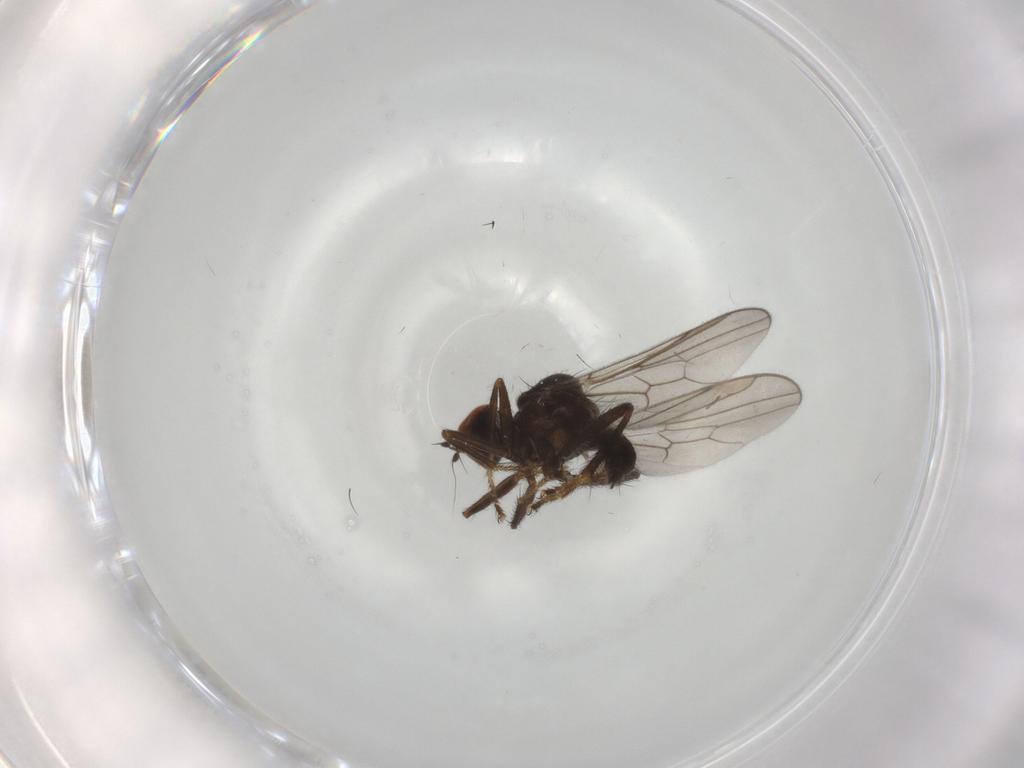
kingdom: Animalia
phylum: Arthropoda
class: Insecta
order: Diptera
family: Hybotidae
